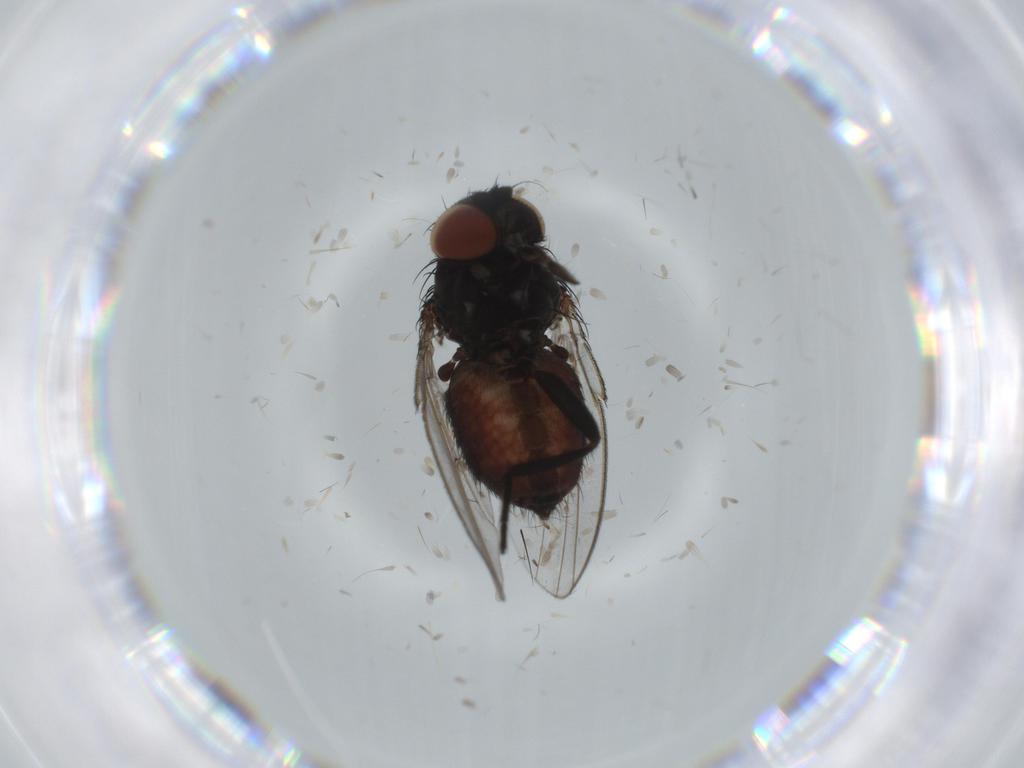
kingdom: Animalia
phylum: Arthropoda
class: Insecta
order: Diptera
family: Milichiidae
